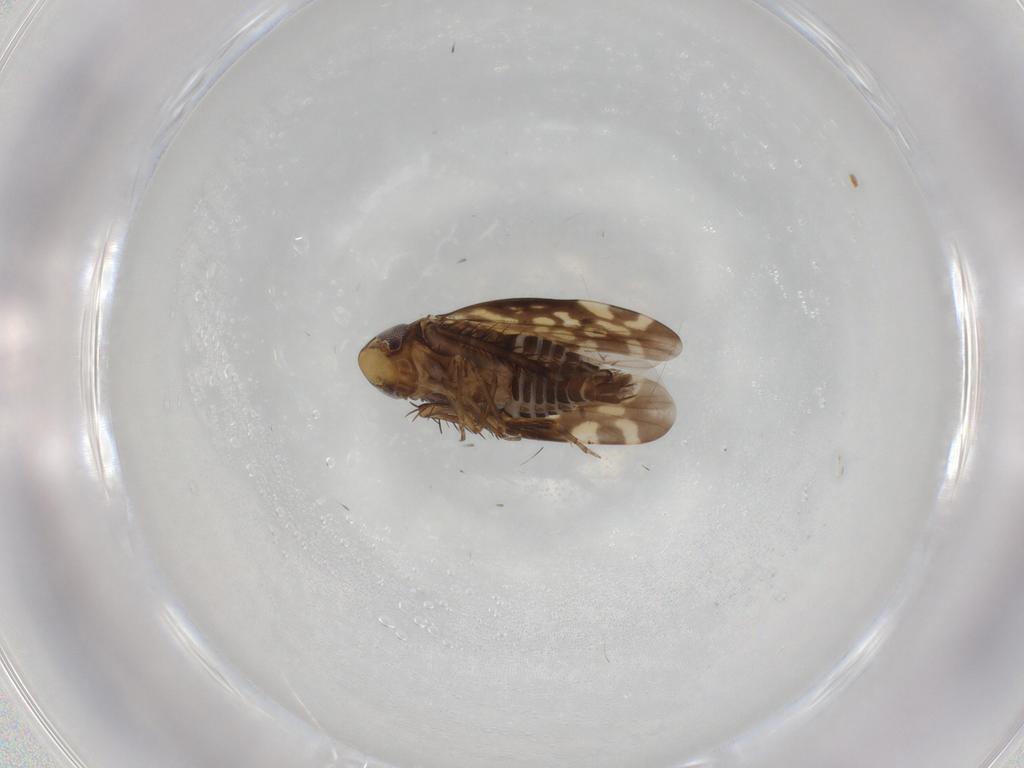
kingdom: Animalia
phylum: Arthropoda
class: Insecta
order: Hemiptera
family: Cicadellidae
